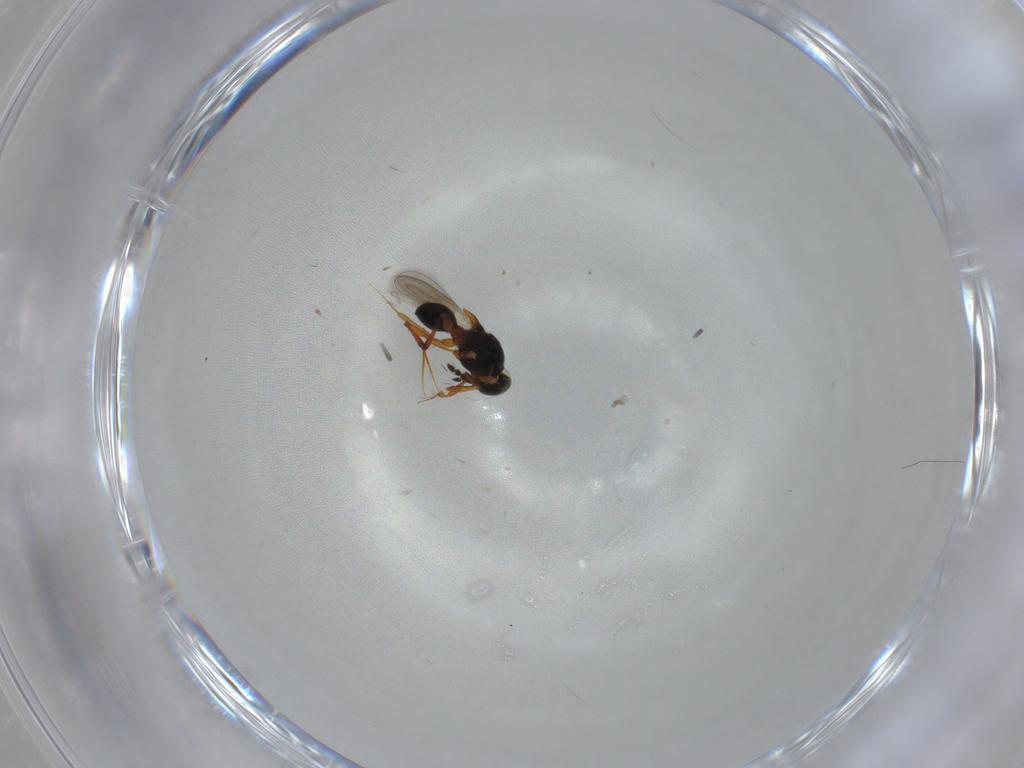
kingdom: Animalia
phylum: Arthropoda
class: Insecta
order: Hymenoptera
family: Platygastridae
